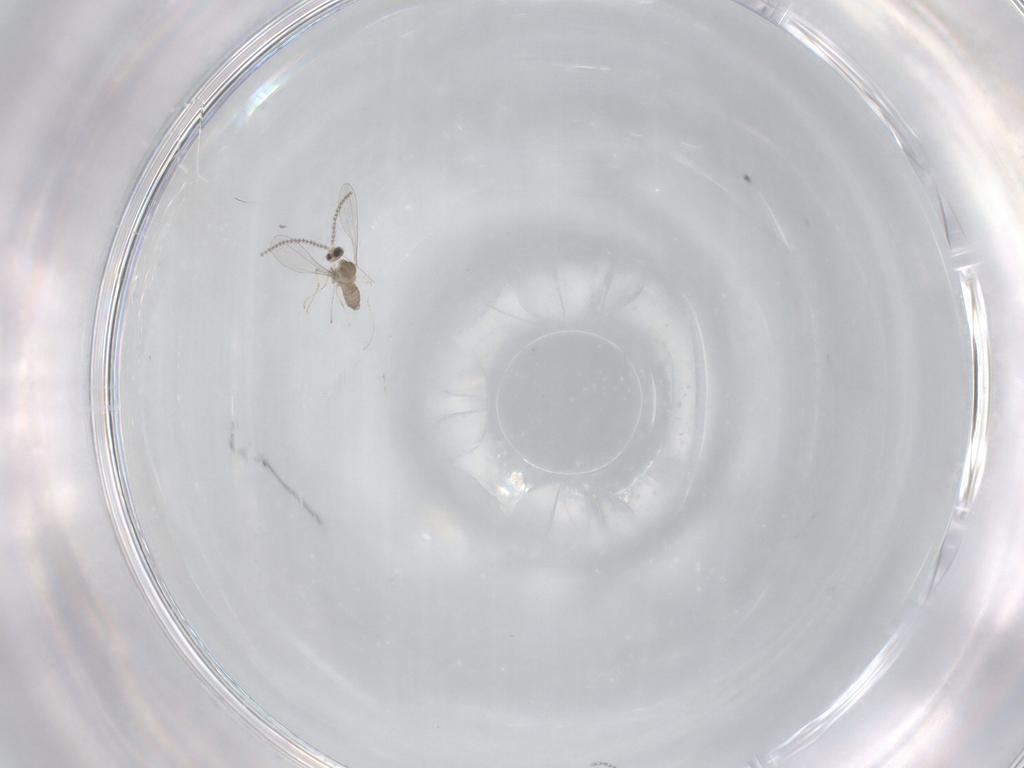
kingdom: Animalia
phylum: Arthropoda
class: Insecta
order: Diptera
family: Cecidomyiidae
